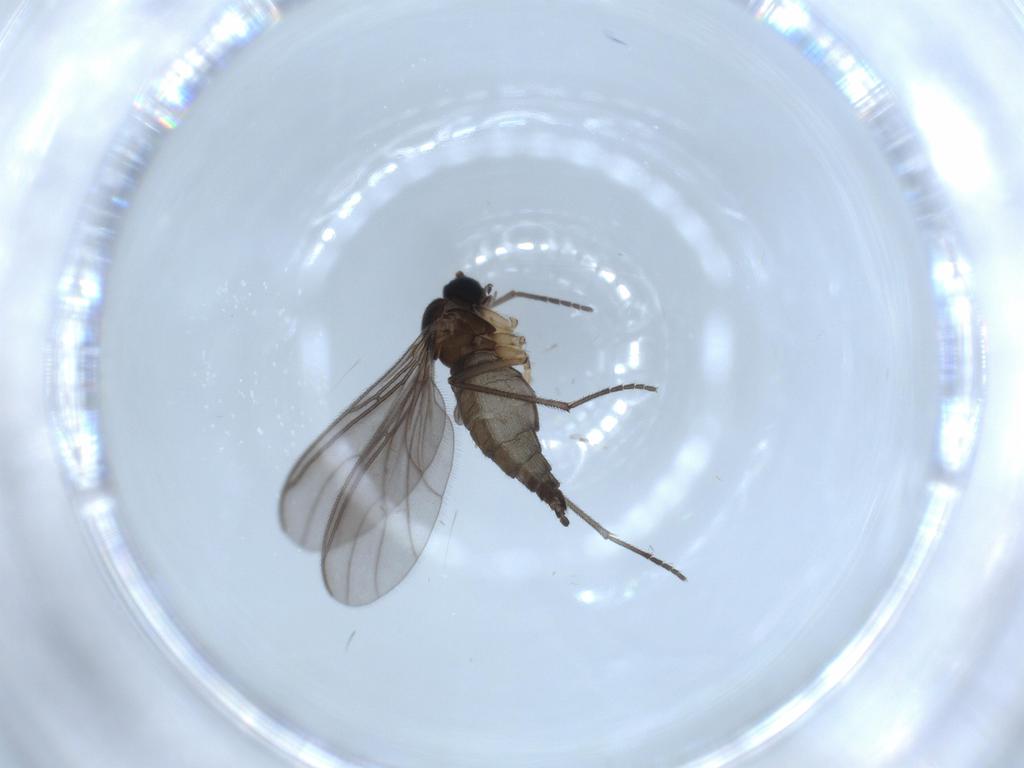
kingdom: Animalia
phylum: Arthropoda
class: Insecta
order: Diptera
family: Sciaridae
